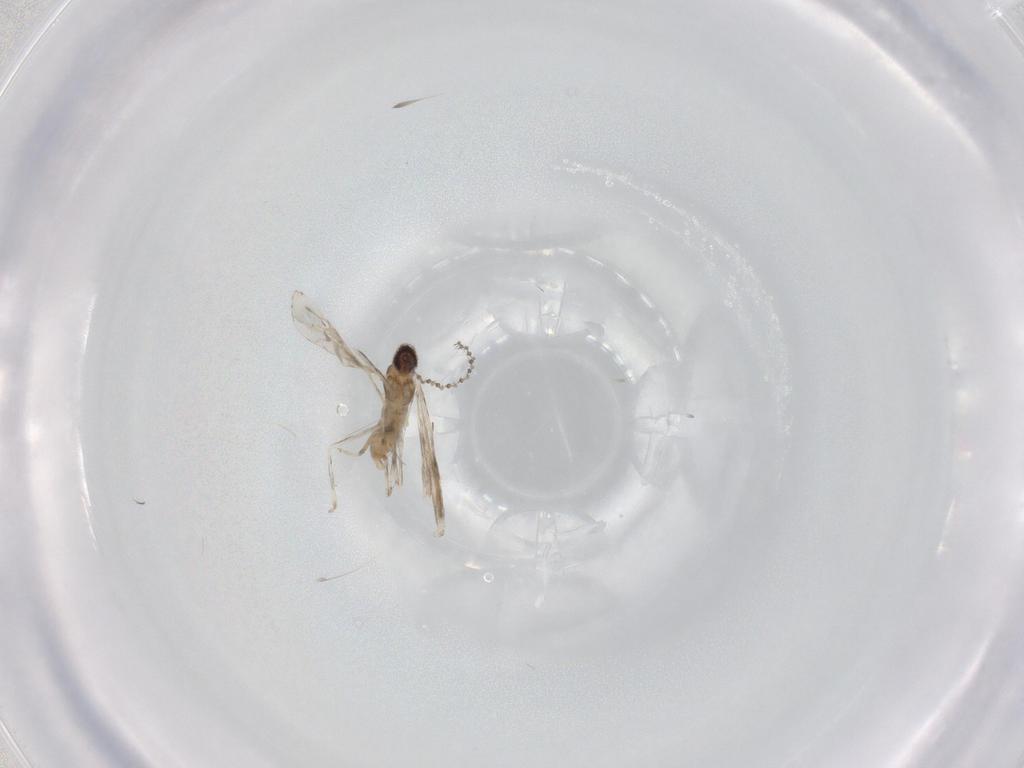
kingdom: Animalia
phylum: Arthropoda
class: Insecta
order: Diptera
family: Cecidomyiidae
